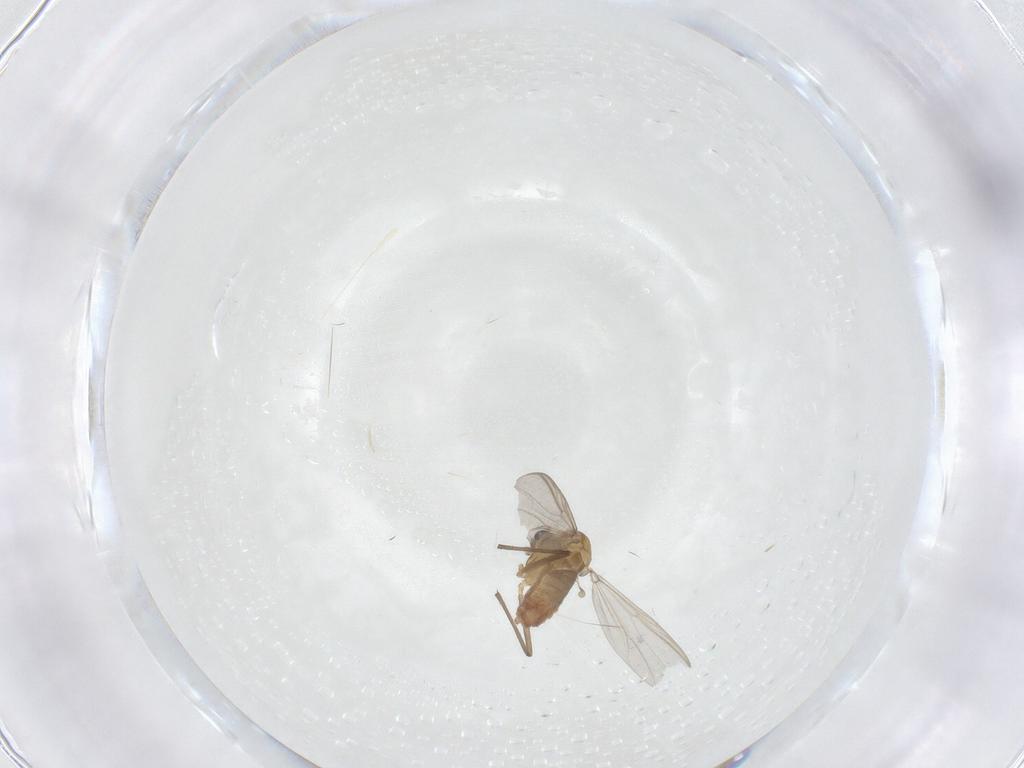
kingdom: Animalia
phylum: Arthropoda
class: Insecta
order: Diptera
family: Chironomidae
